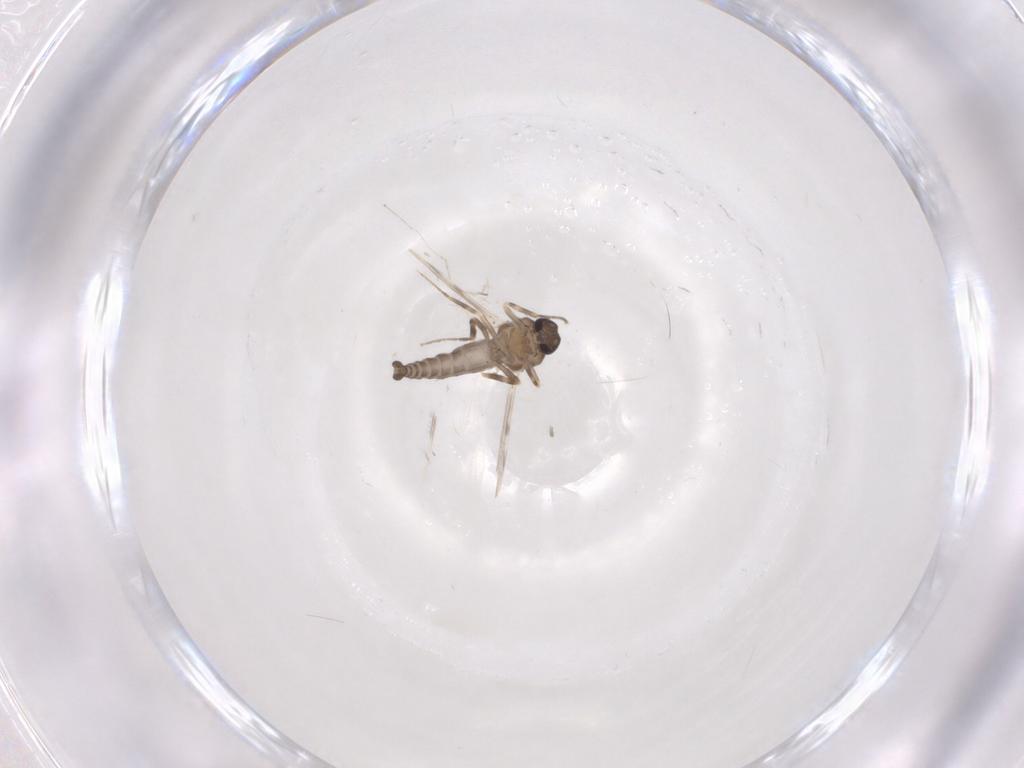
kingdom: Animalia
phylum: Arthropoda
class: Insecta
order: Diptera
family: Ceratopogonidae
